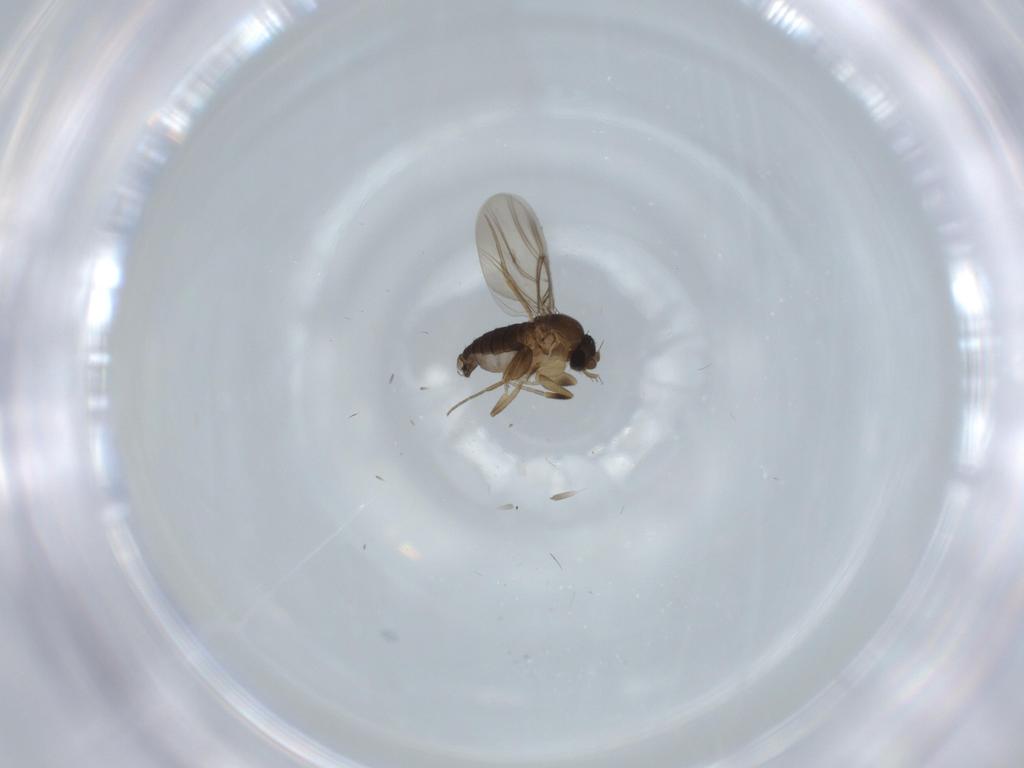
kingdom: Animalia
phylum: Arthropoda
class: Insecta
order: Diptera
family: Phoridae
